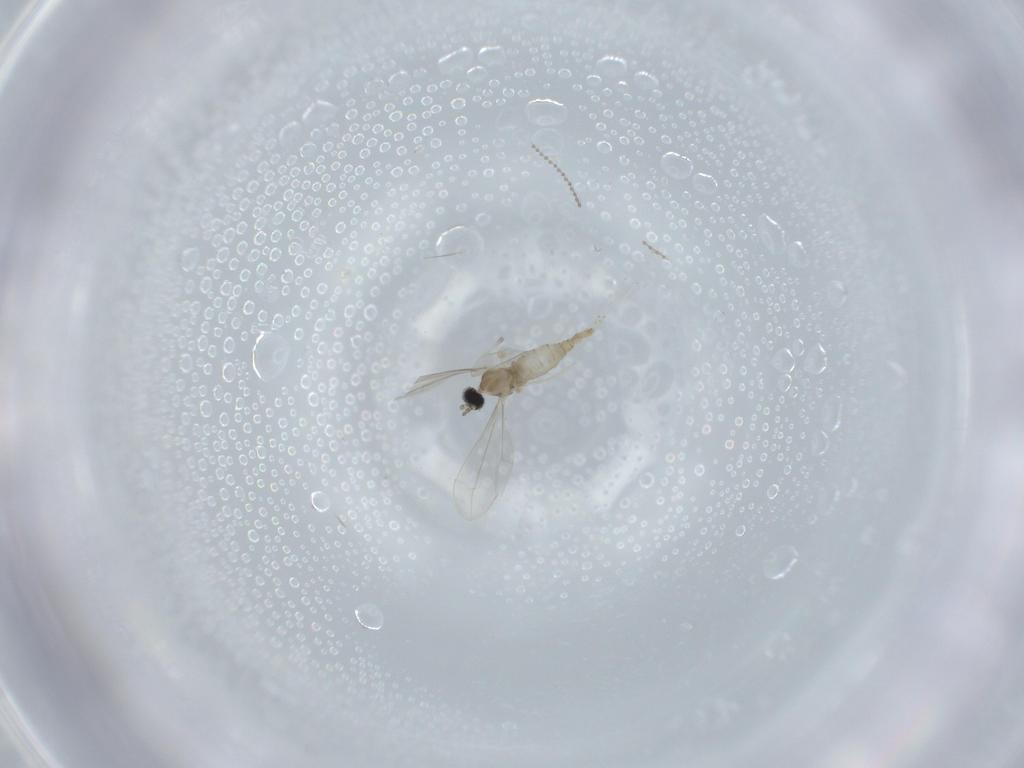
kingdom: Animalia
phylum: Arthropoda
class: Insecta
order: Diptera
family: Cecidomyiidae
